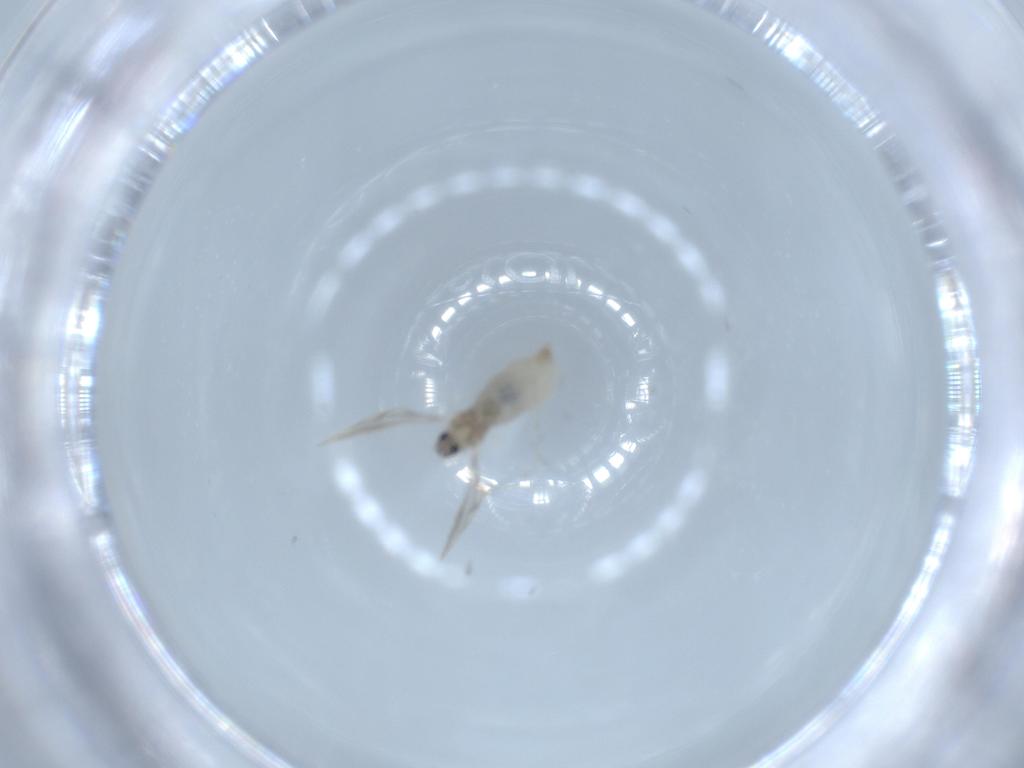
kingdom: Animalia
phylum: Arthropoda
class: Insecta
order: Diptera
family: Cecidomyiidae
